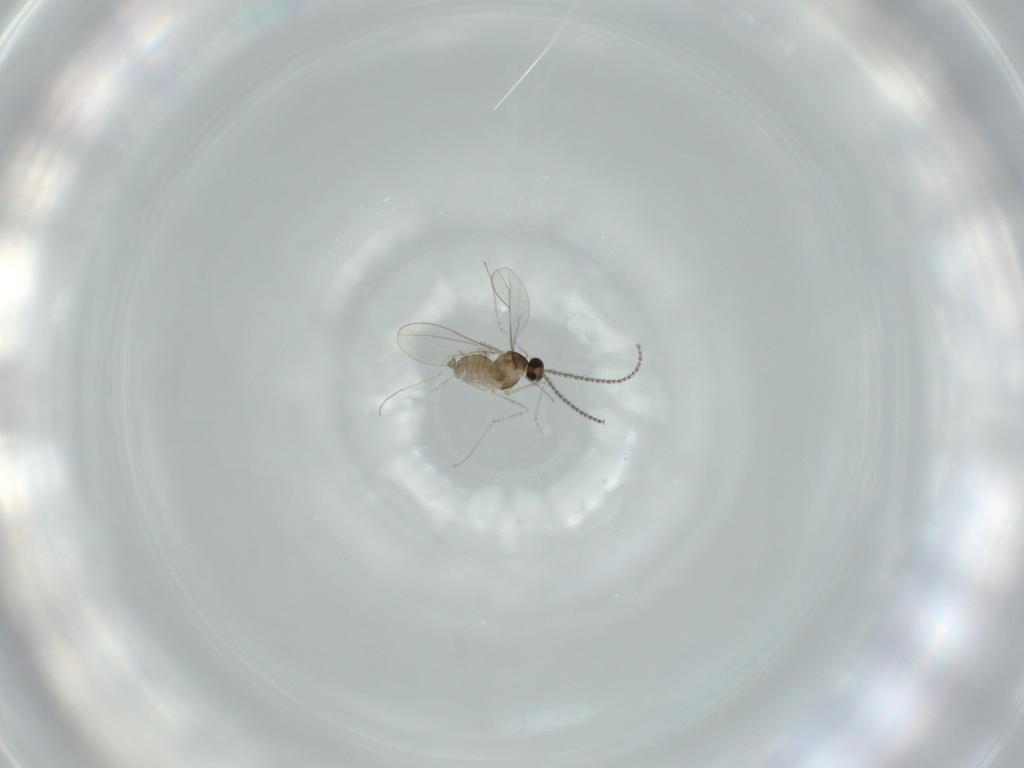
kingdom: Animalia
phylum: Arthropoda
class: Insecta
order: Diptera
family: Cecidomyiidae
